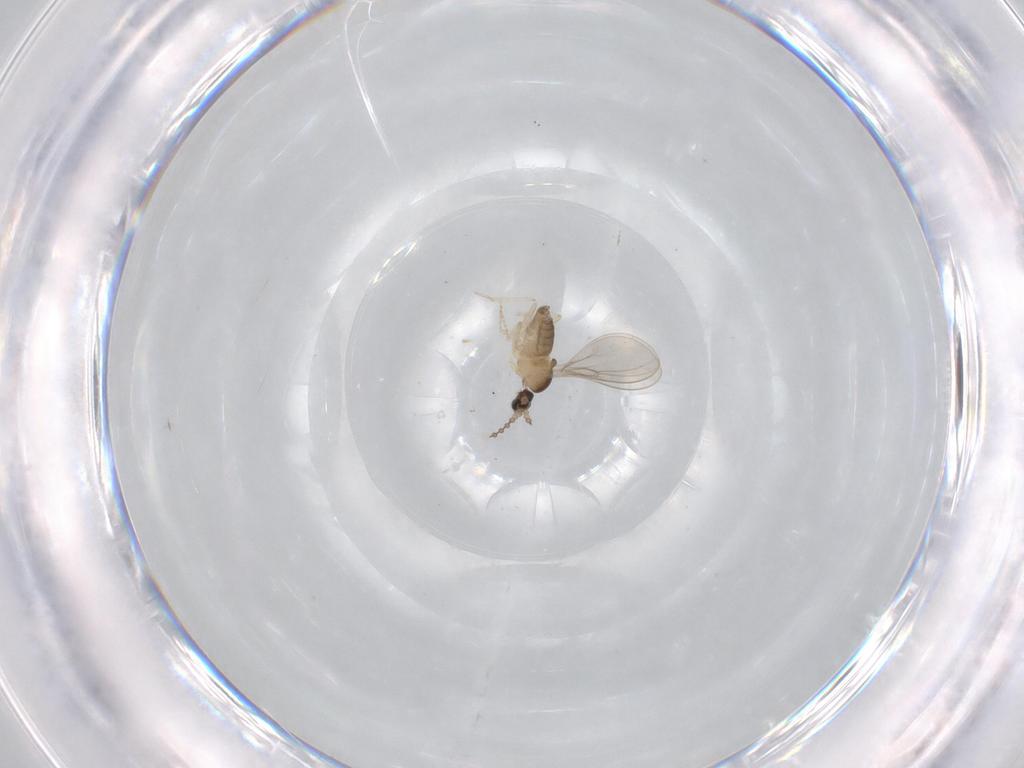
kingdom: Animalia
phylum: Arthropoda
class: Insecta
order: Diptera
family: Cecidomyiidae
